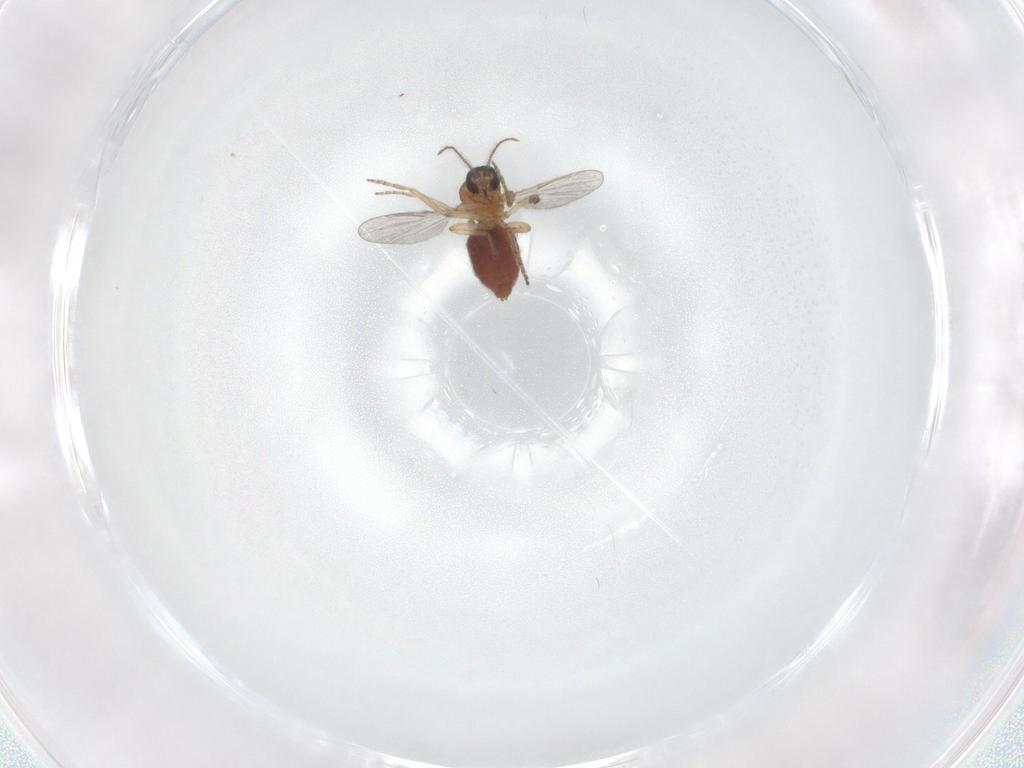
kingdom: Animalia
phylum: Arthropoda
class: Insecta
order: Diptera
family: Ceratopogonidae
